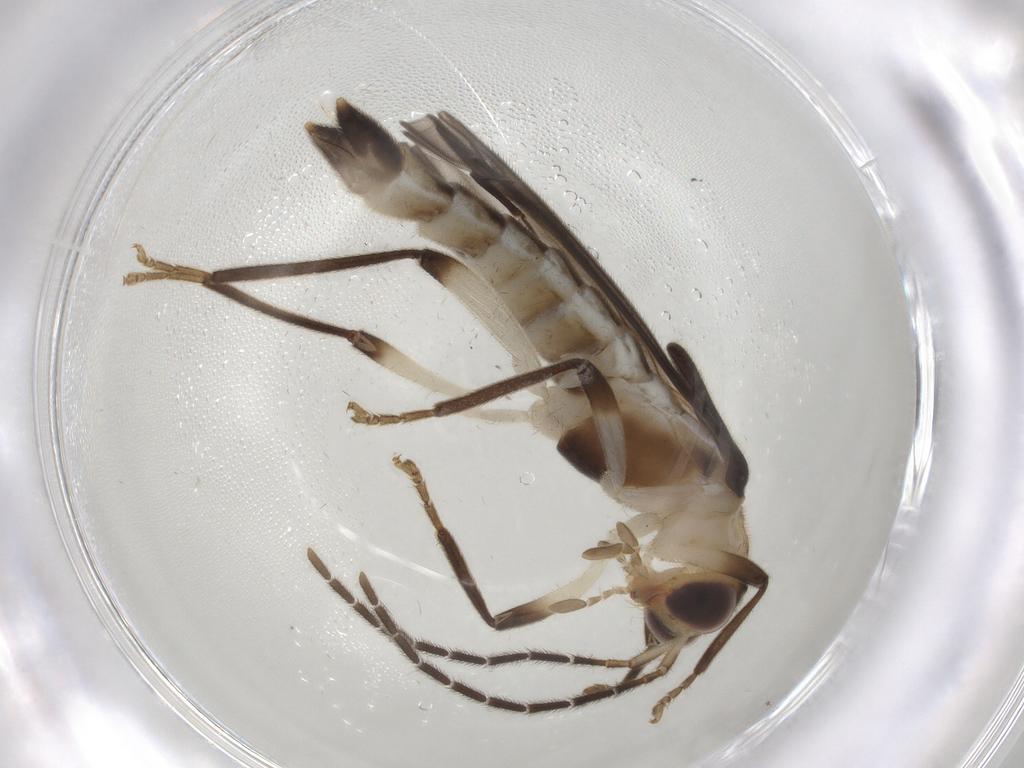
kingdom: Animalia
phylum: Arthropoda
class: Insecta
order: Coleoptera
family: Cantharidae
